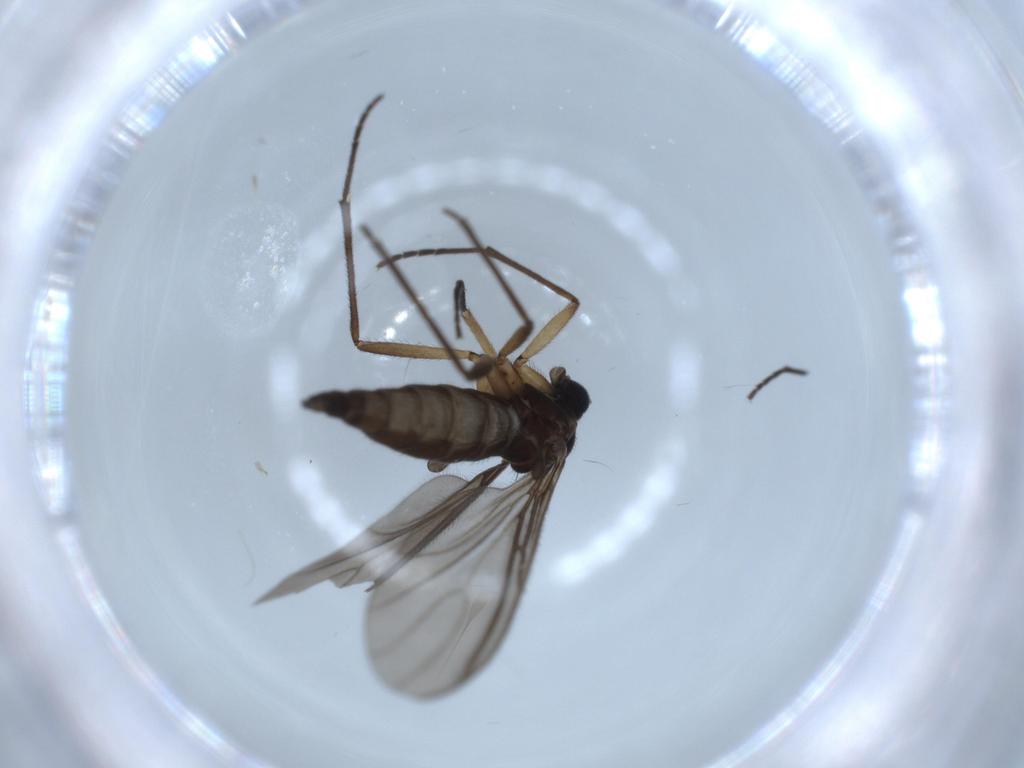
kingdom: Animalia
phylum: Arthropoda
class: Insecta
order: Diptera
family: Sciaridae
